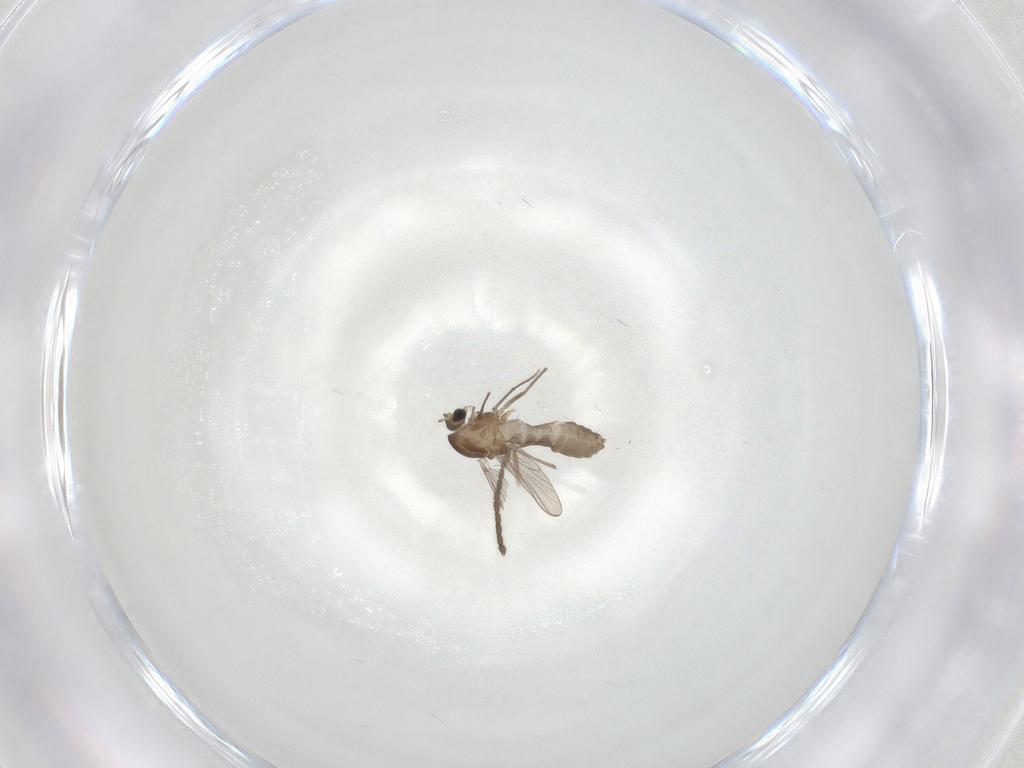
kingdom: Animalia
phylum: Arthropoda
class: Insecta
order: Diptera
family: Chironomidae
